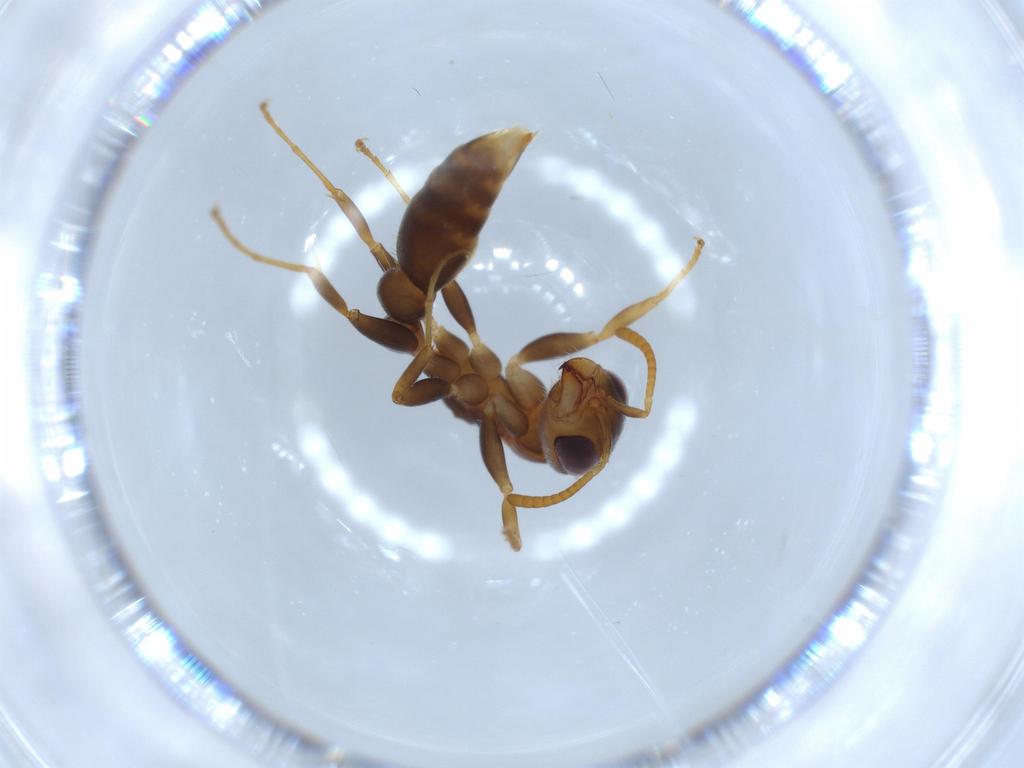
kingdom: Animalia
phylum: Arthropoda
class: Insecta
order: Hymenoptera
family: Formicidae
